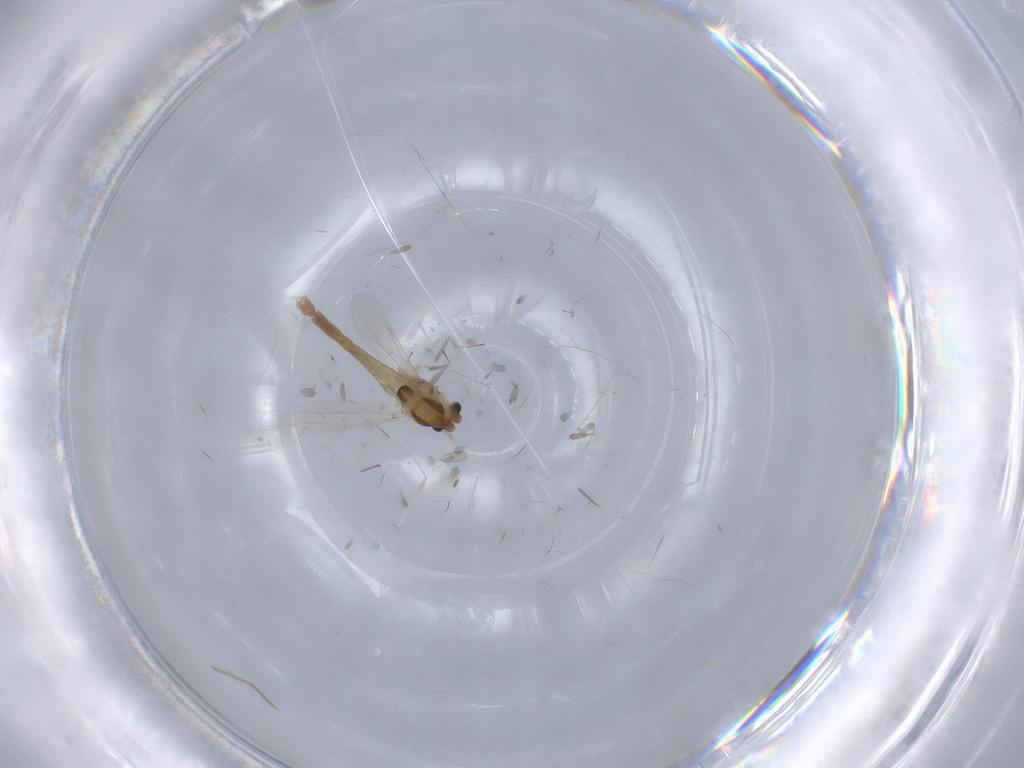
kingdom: Animalia
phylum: Arthropoda
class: Insecta
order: Diptera
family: Chironomidae
